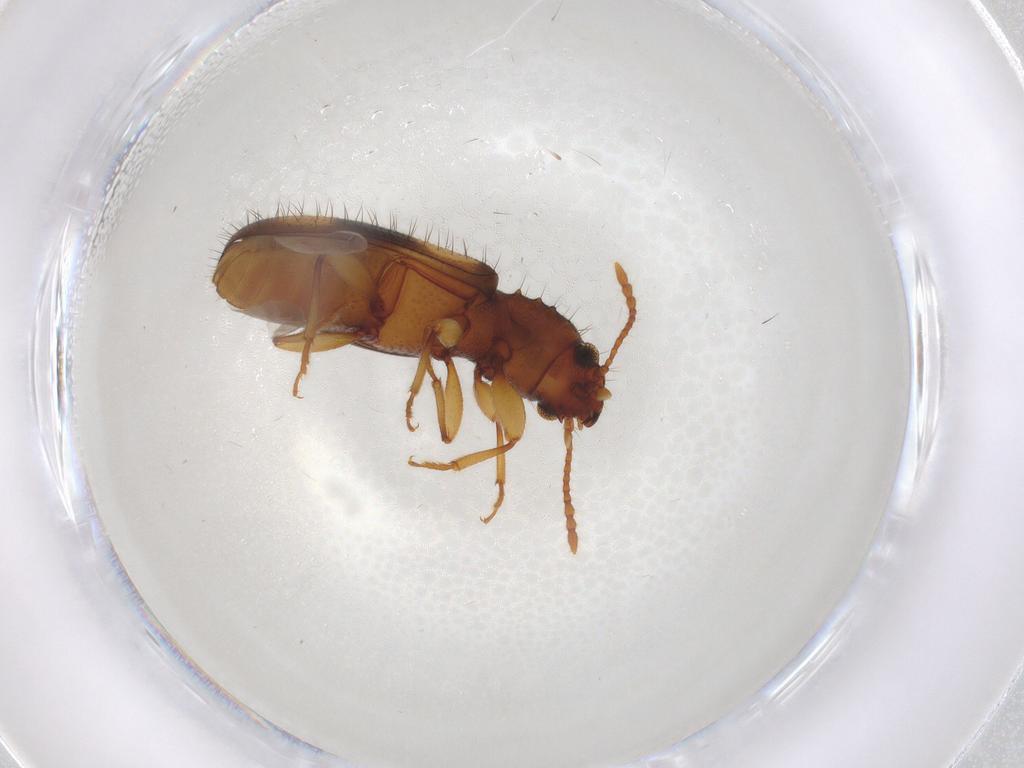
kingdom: Animalia
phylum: Arthropoda
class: Insecta
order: Coleoptera
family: Salpingidae
